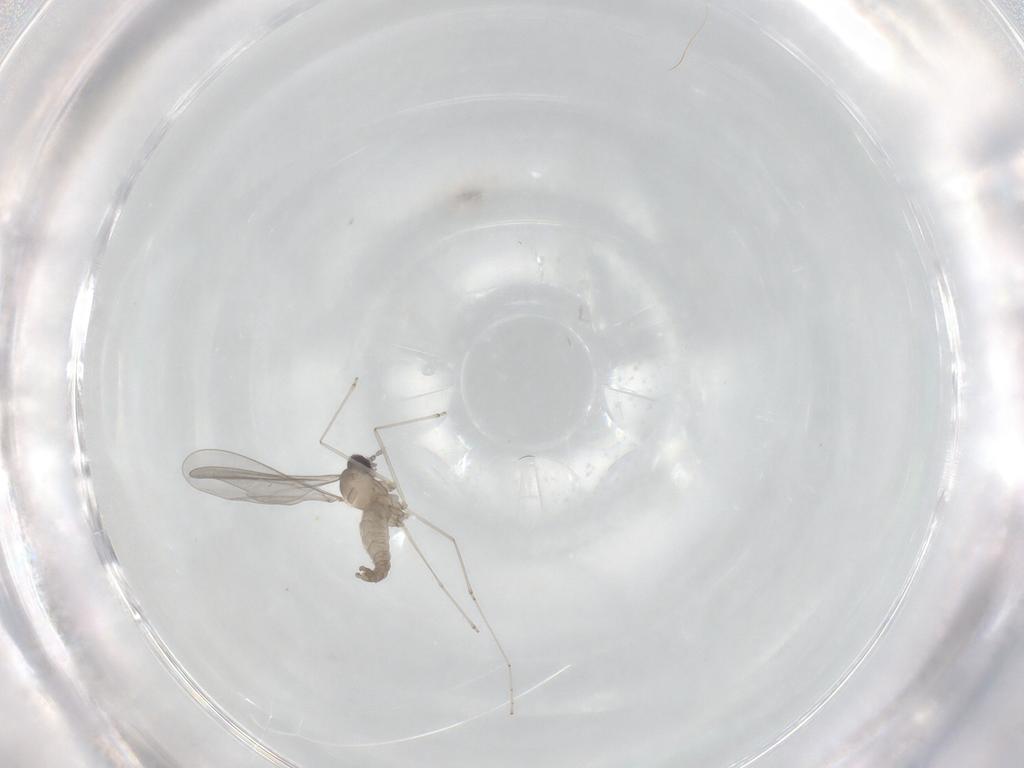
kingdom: Animalia
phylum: Arthropoda
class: Insecta
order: Diptera
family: Cecidomyiidae
